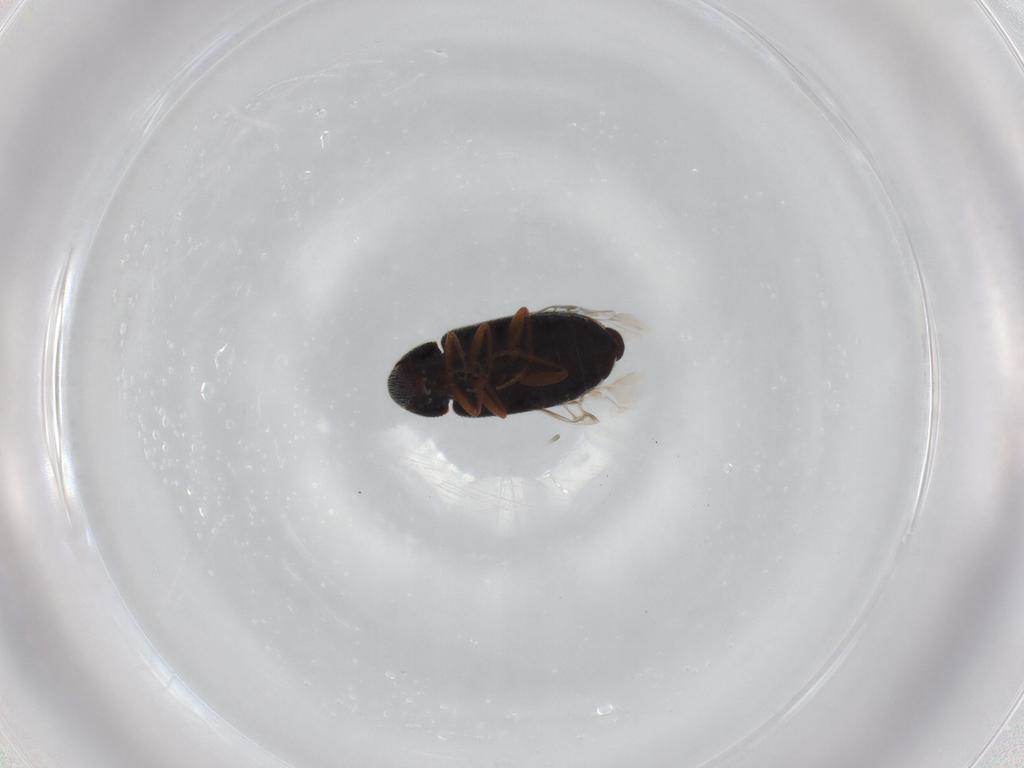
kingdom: Animalia
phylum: Arthropoda
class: Insecta
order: Coleoptera
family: Rhadalidae
